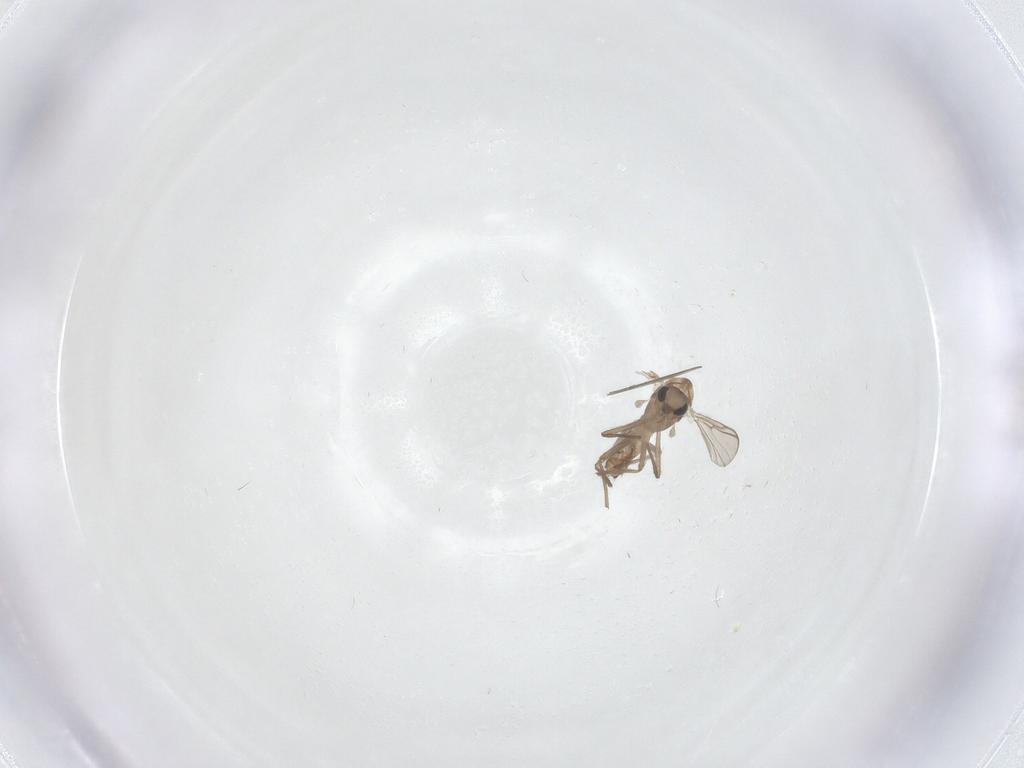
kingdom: Animalia
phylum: Arthropoda
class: Insecta
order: Diptera
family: Chironomidae
